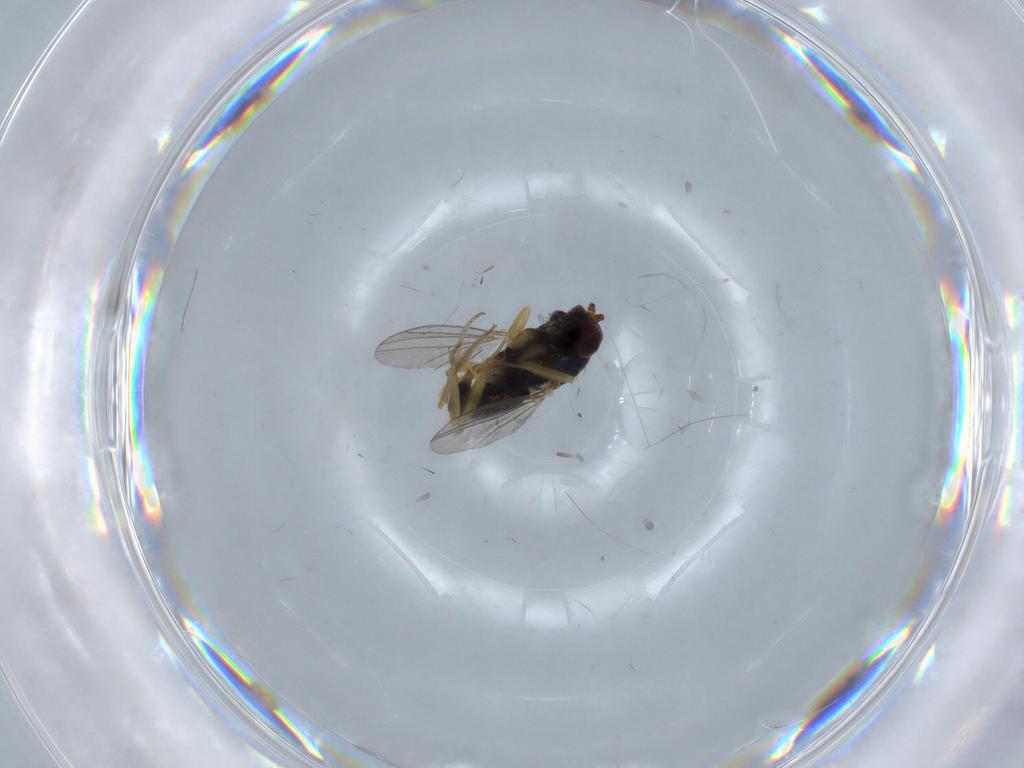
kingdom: Animalia
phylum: Arthropoda
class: Insecta
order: Diptera
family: Dolichopodidae
